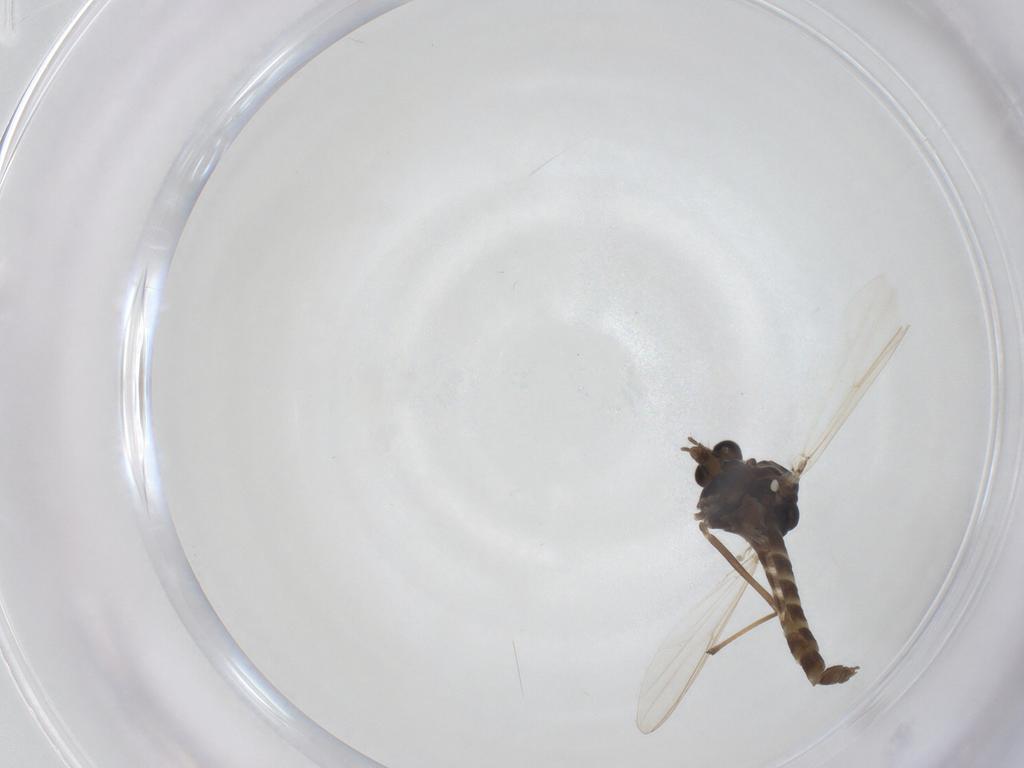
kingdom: Animalia
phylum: Arthropoda
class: Insecta
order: Diptera
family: Chironomidae
